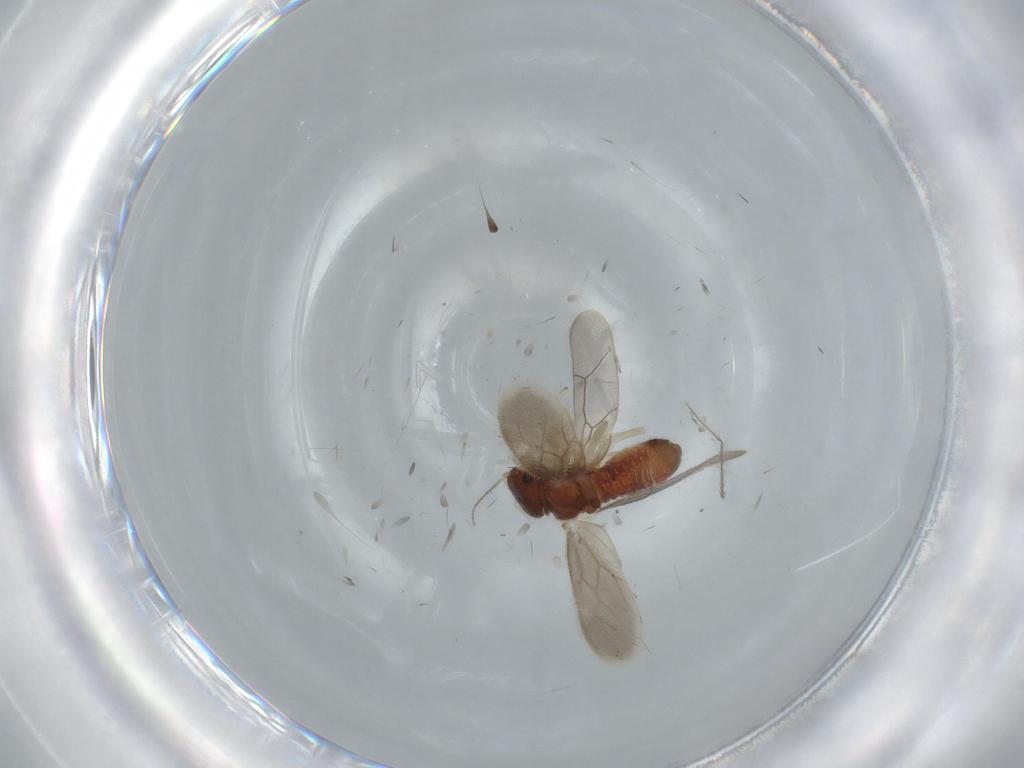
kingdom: Animalia
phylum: Arthropoda
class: Insecta
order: Psocodea
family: Archipsocidae
